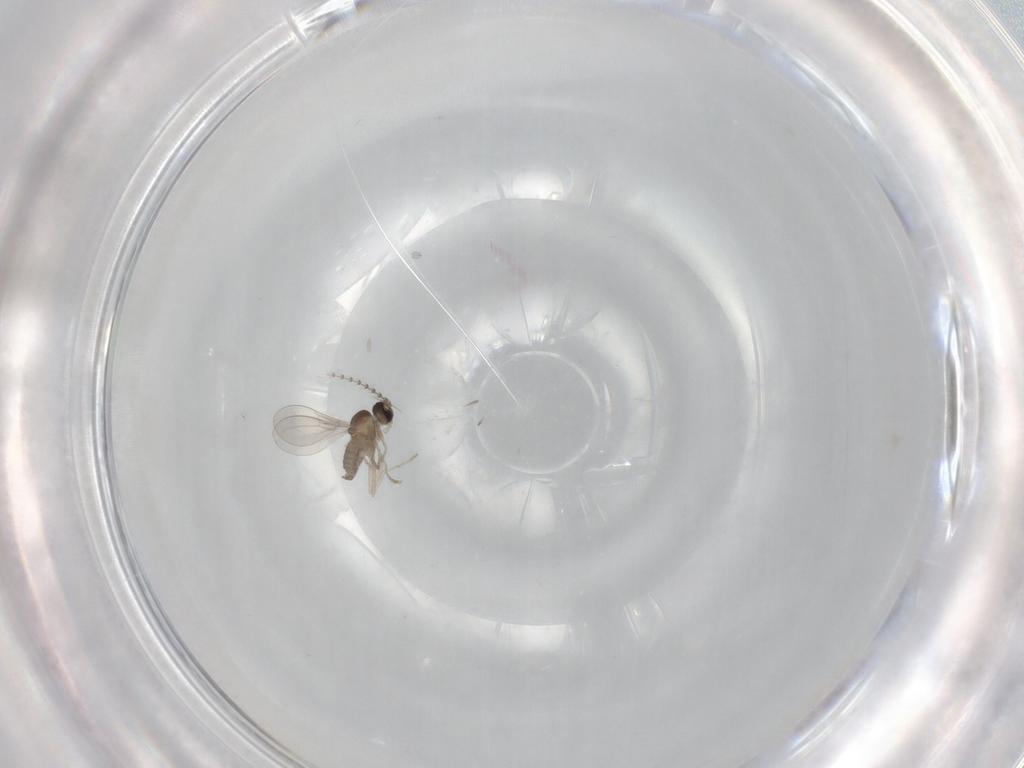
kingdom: Animalia
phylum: Arthropoda
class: Insecta
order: Diptera
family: Cecidomyiidae
